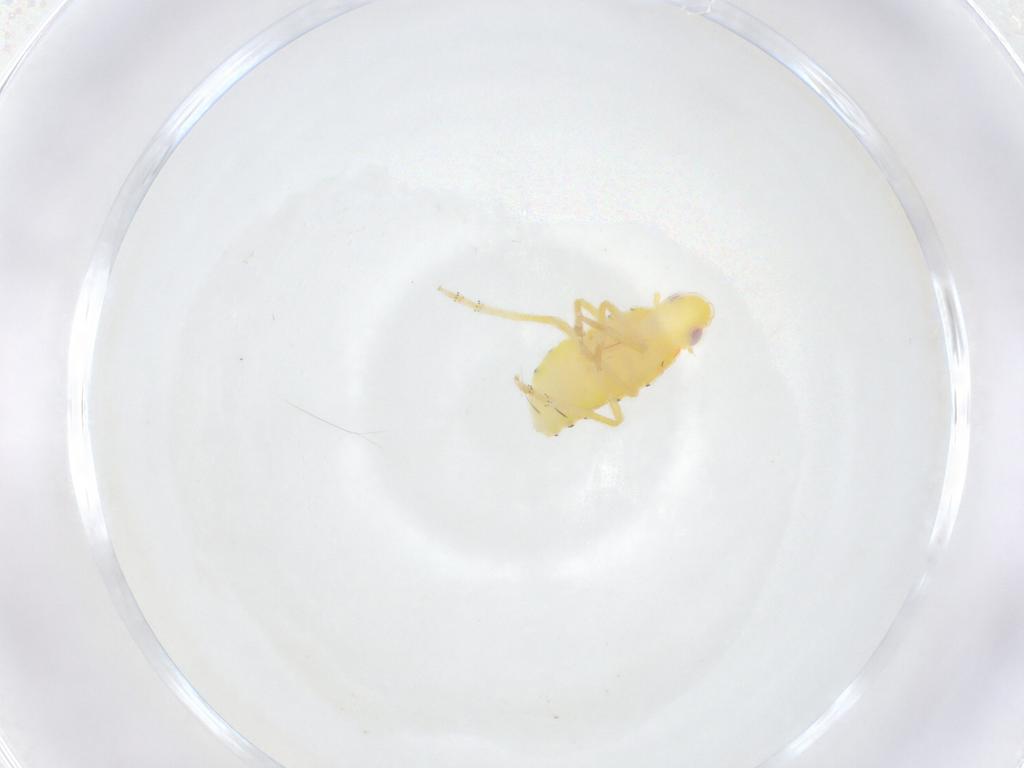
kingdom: Animalia
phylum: Arthropoda
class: Insecta
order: Hemiptera
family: Tropiduchidae
